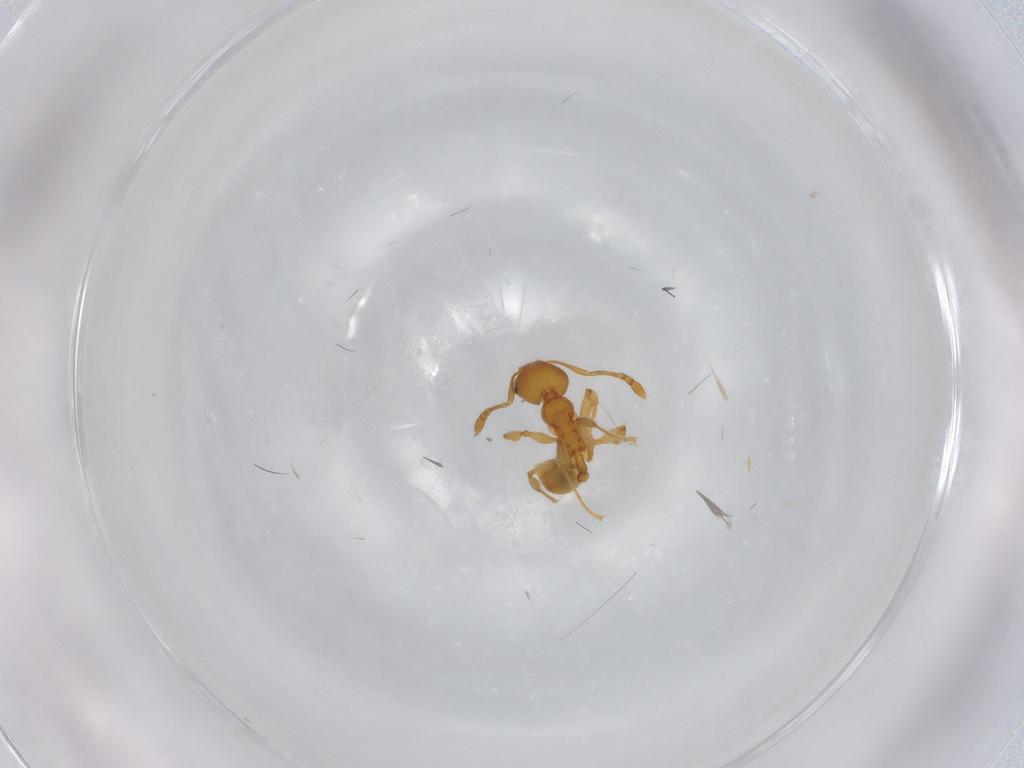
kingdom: Animalia
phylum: Arthropoda
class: Insecta
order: Hymenoptera
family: Formicidae
